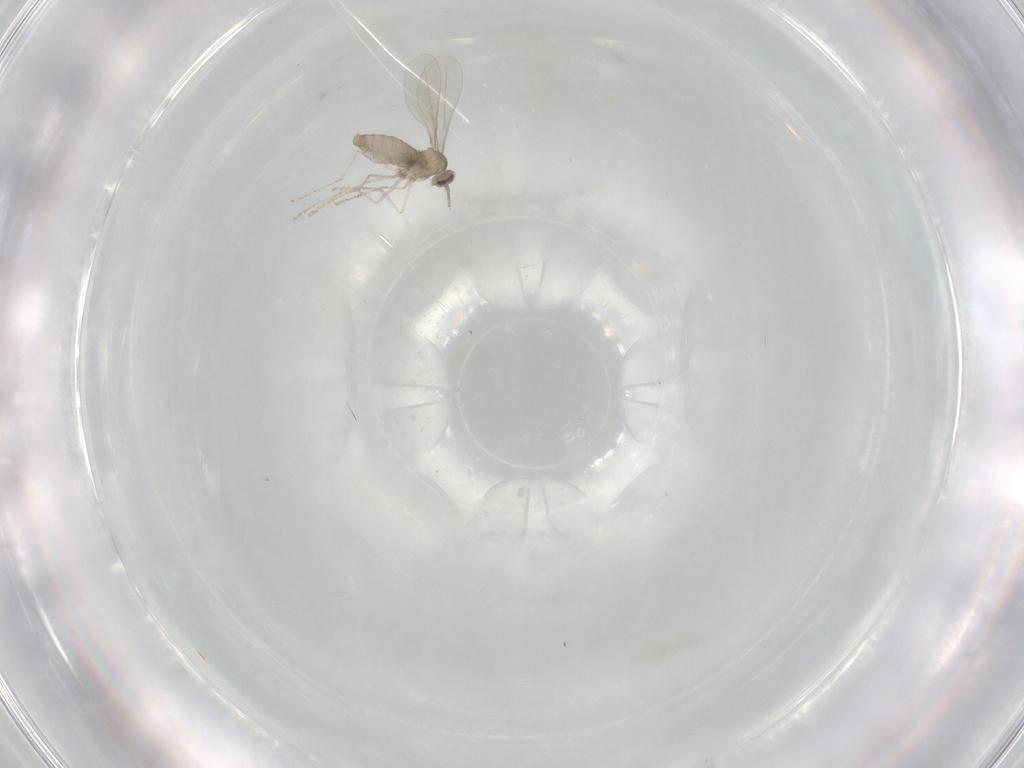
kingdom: Animalia
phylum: Arthropoda
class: Insecta
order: Diptera
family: Cecidomyiidae
